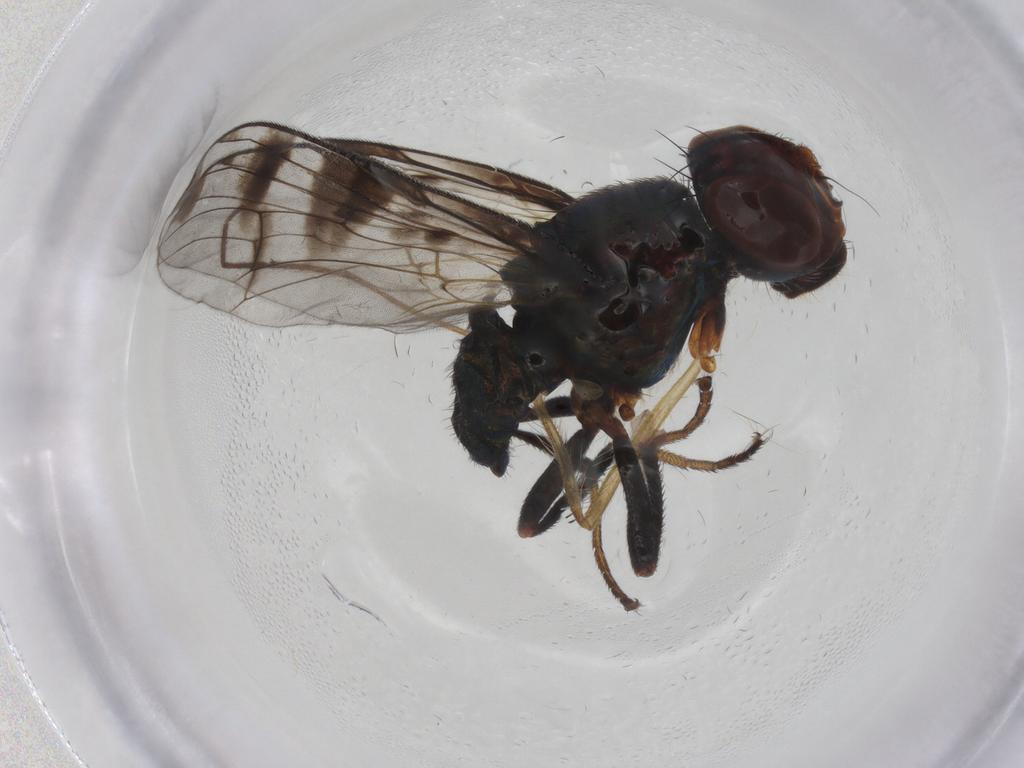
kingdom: Animalia
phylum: Arthropoda
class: Insecta
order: Diptera
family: Platystomatidae
